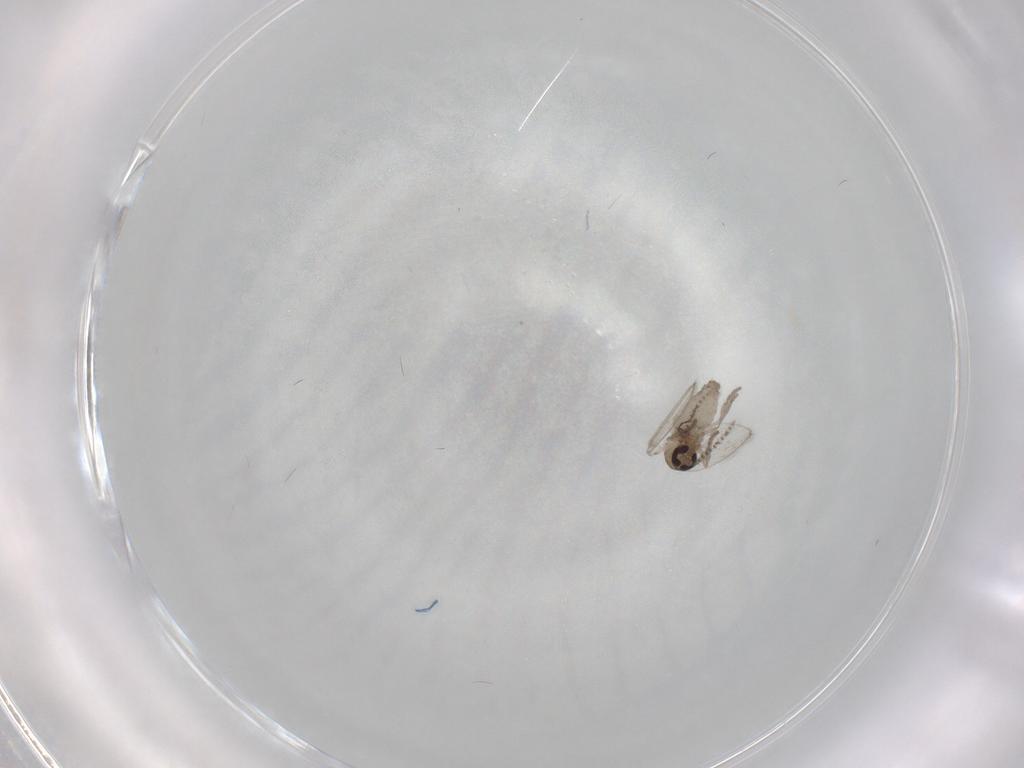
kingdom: Animalia
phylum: Arthropoda
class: Insecta
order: Diptera
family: Psychodidae
